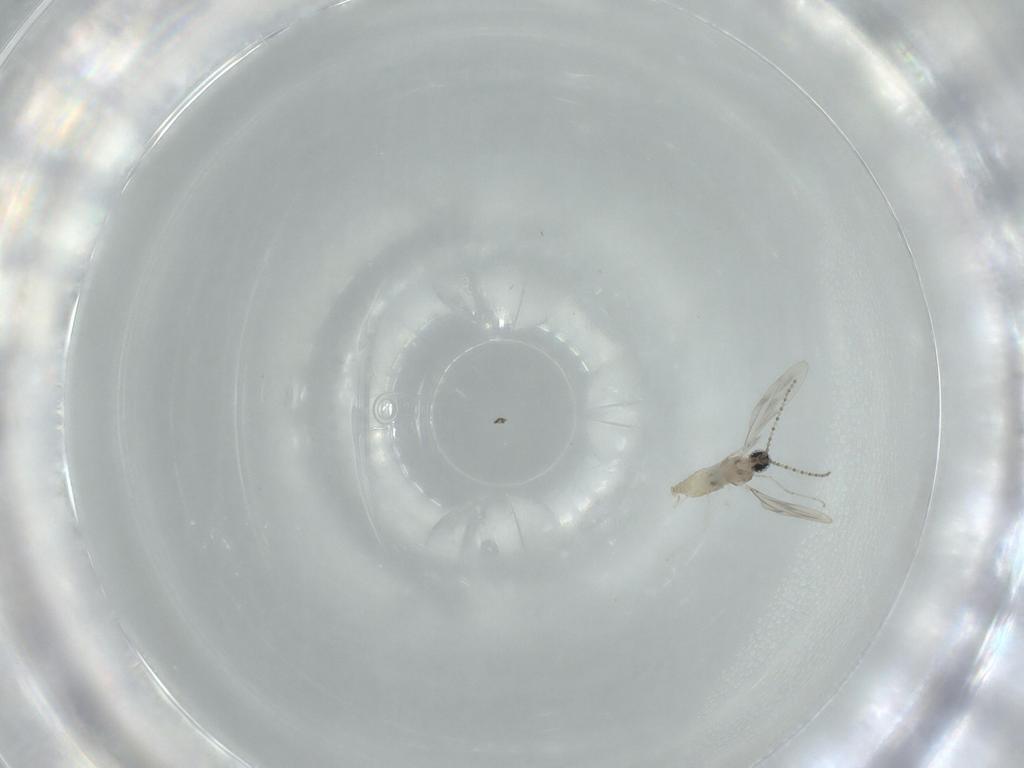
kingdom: Animalia
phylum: Arthropoda
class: Insecta
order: Diptera
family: Cecidomyiidae
